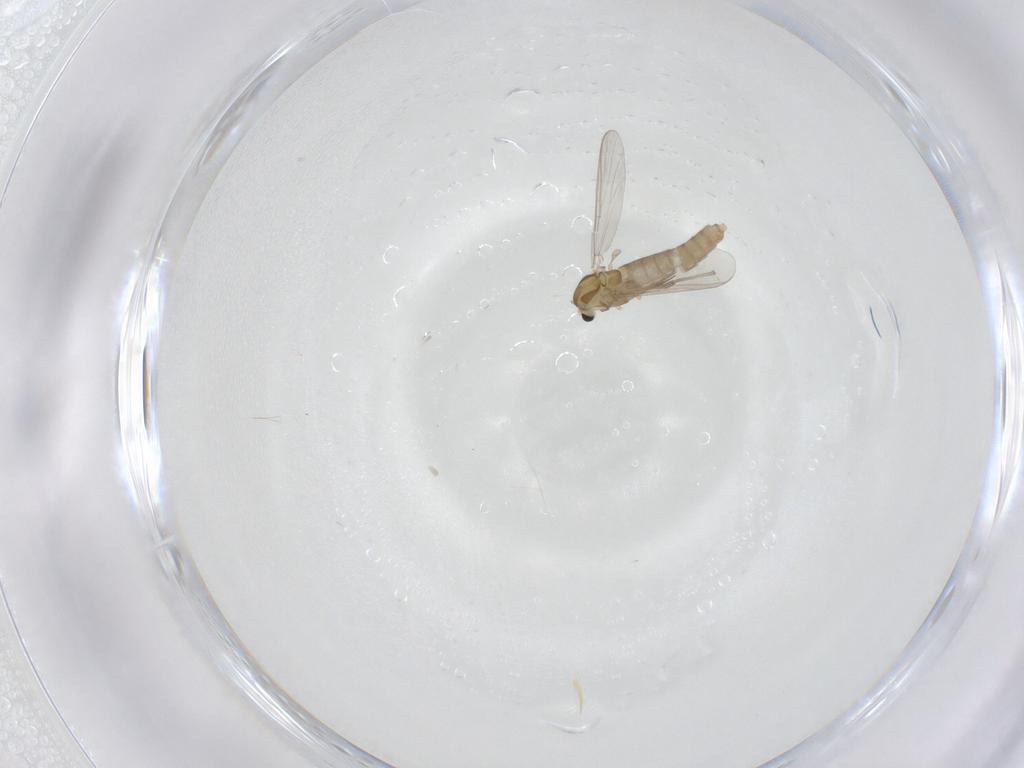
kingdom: Animalia
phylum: Arthropoda
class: Insecta
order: Diptera
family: Chironomidae
